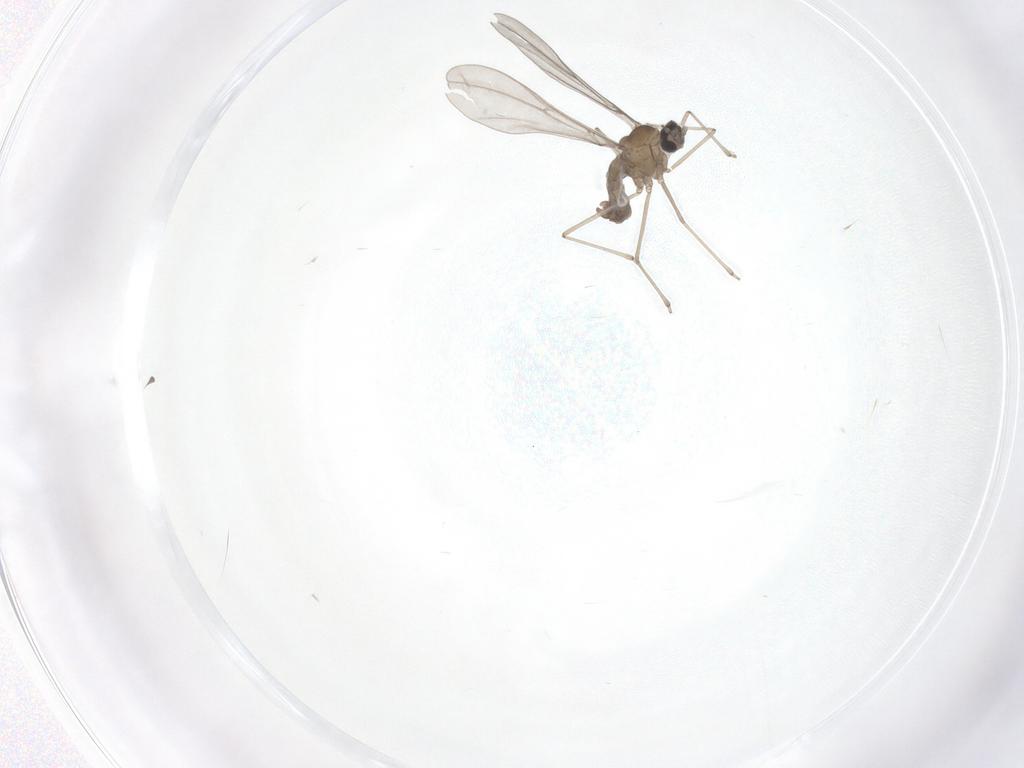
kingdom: Animalia
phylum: Arthropoda
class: Insecta
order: Diptera
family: Cecidomyiidae
